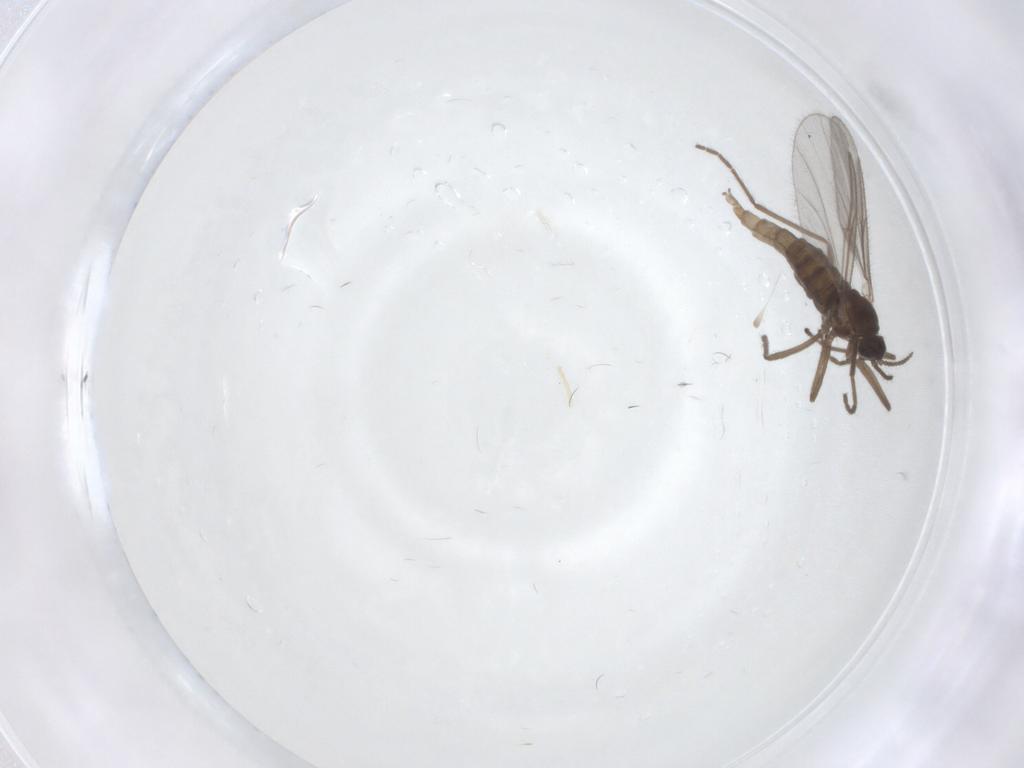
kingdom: Animalia
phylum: Arthropoda
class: Insecta
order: Diptera
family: Cecidomyiidae
